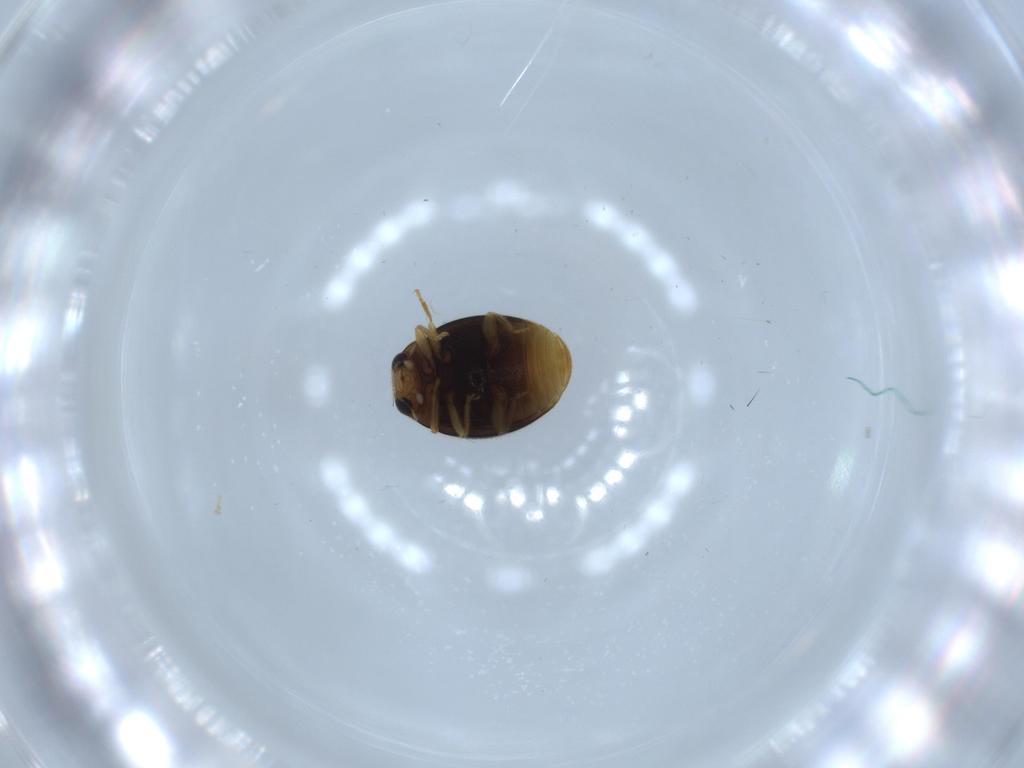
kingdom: Animalia
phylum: Arthropoda
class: Insecta
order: Coleoptera
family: Coccinellidae
